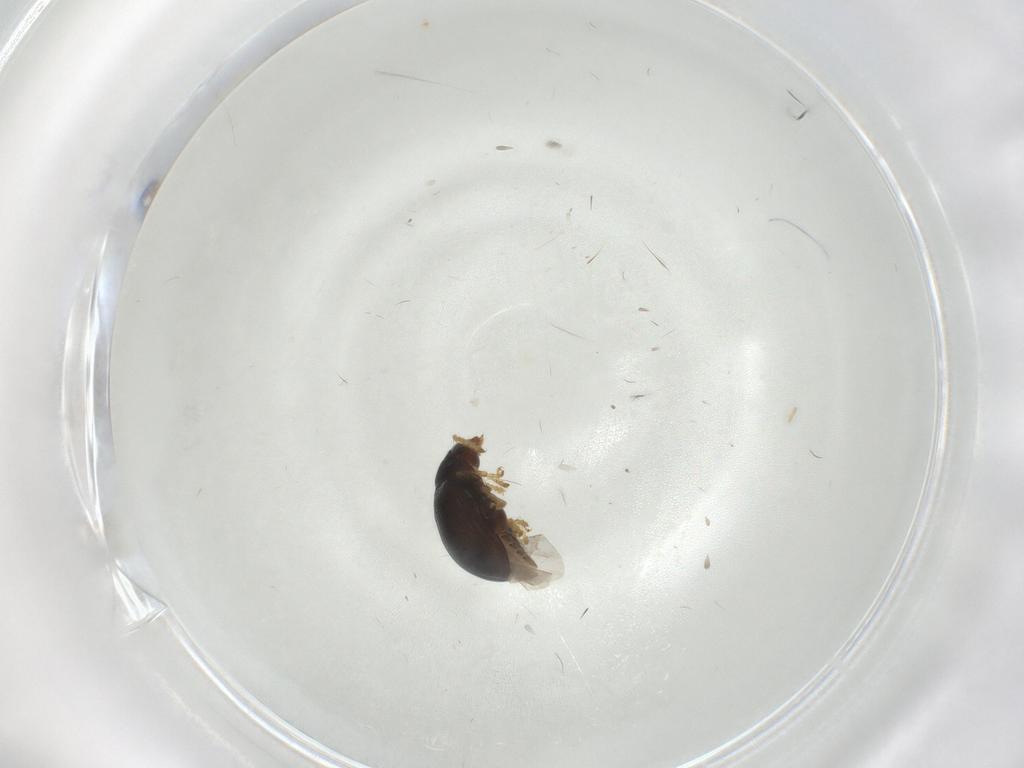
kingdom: Animalia
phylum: Arthropoda
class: Insecta
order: Coleoptera
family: Chrysomelidae
